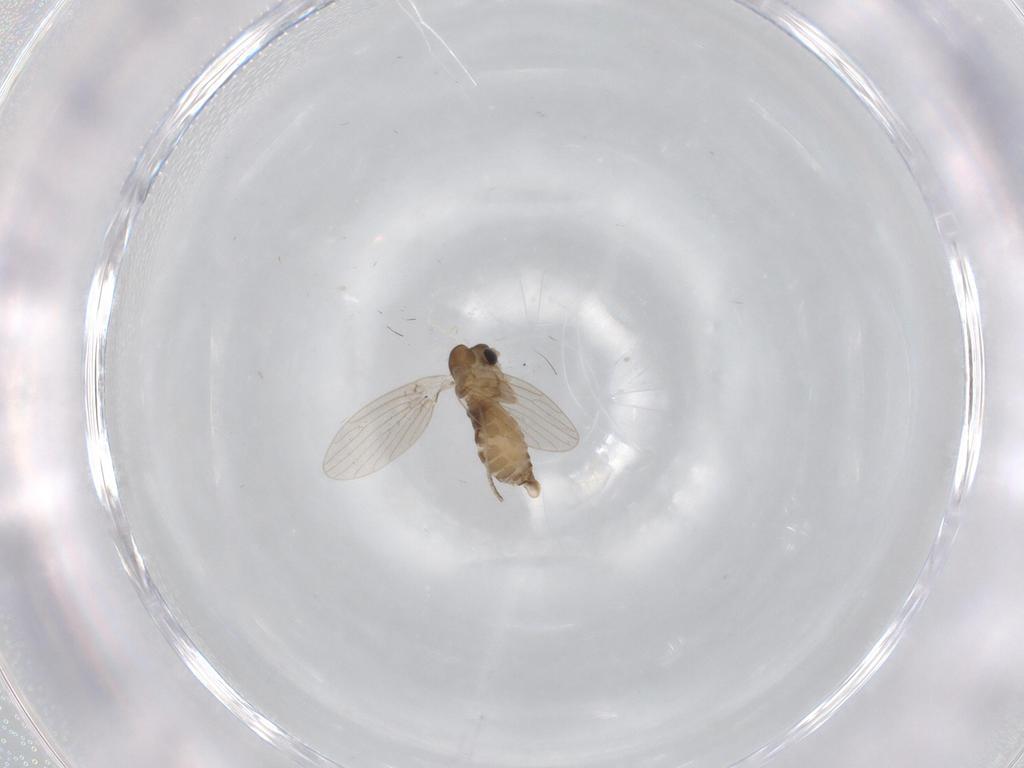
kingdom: Animalia
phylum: Arthropoda
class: Insecta
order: Diptera
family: Psychodidae
